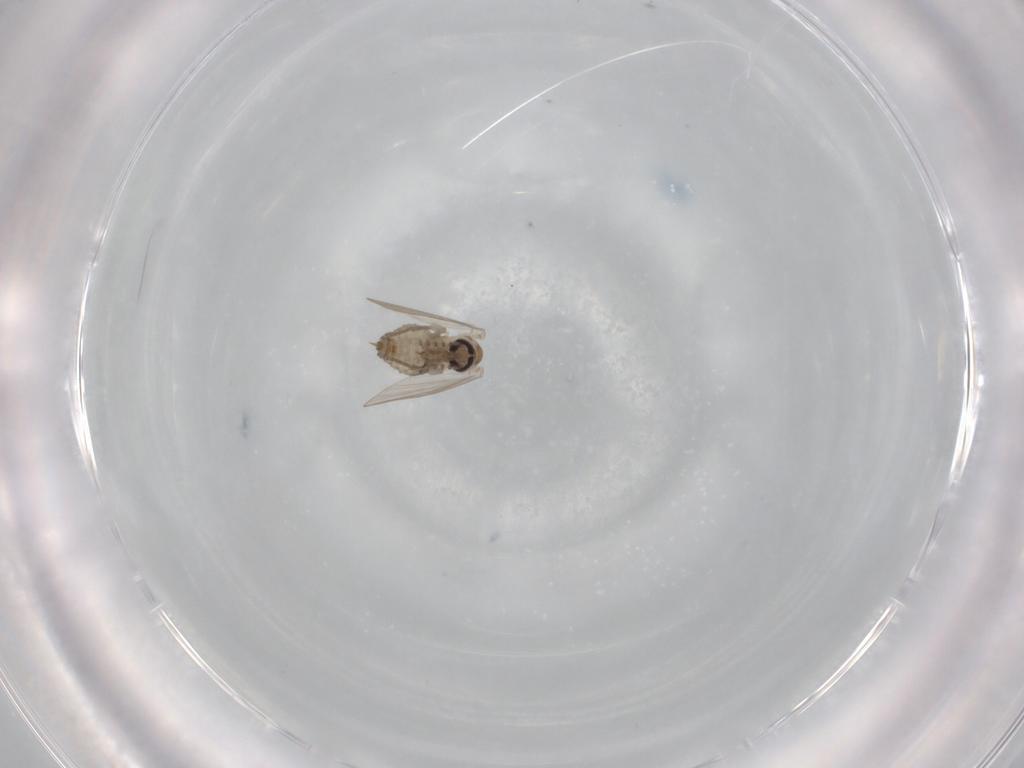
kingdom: Animalia
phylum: Arthropoda
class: Insecta
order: Diptera
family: Psychodidae
